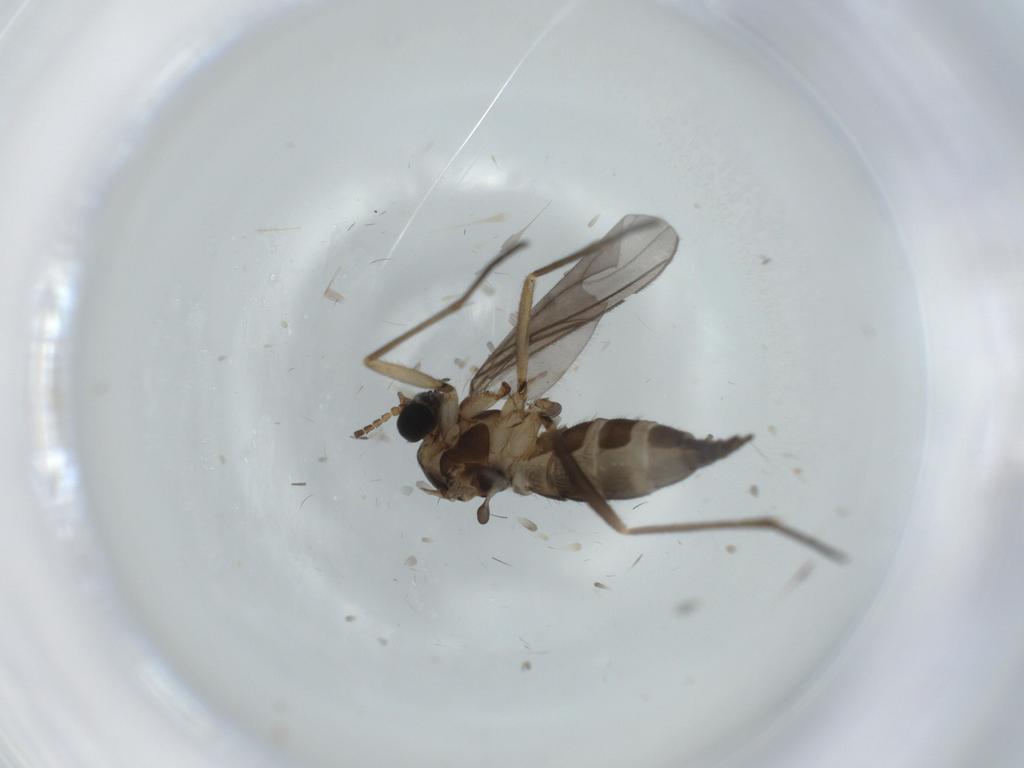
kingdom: Animalia
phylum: Arthropoda
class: Insecta
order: Diptera
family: Sciaridae
